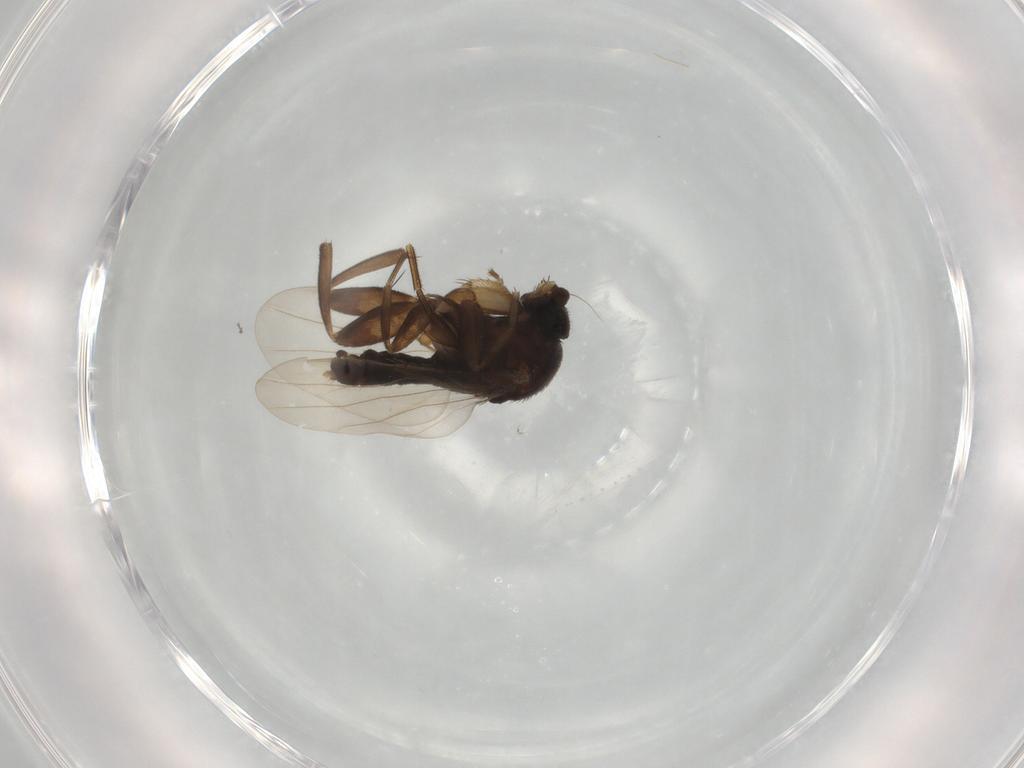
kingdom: Animalia
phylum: Arthropoda
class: Insecta
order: Diptera
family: Phoridae
